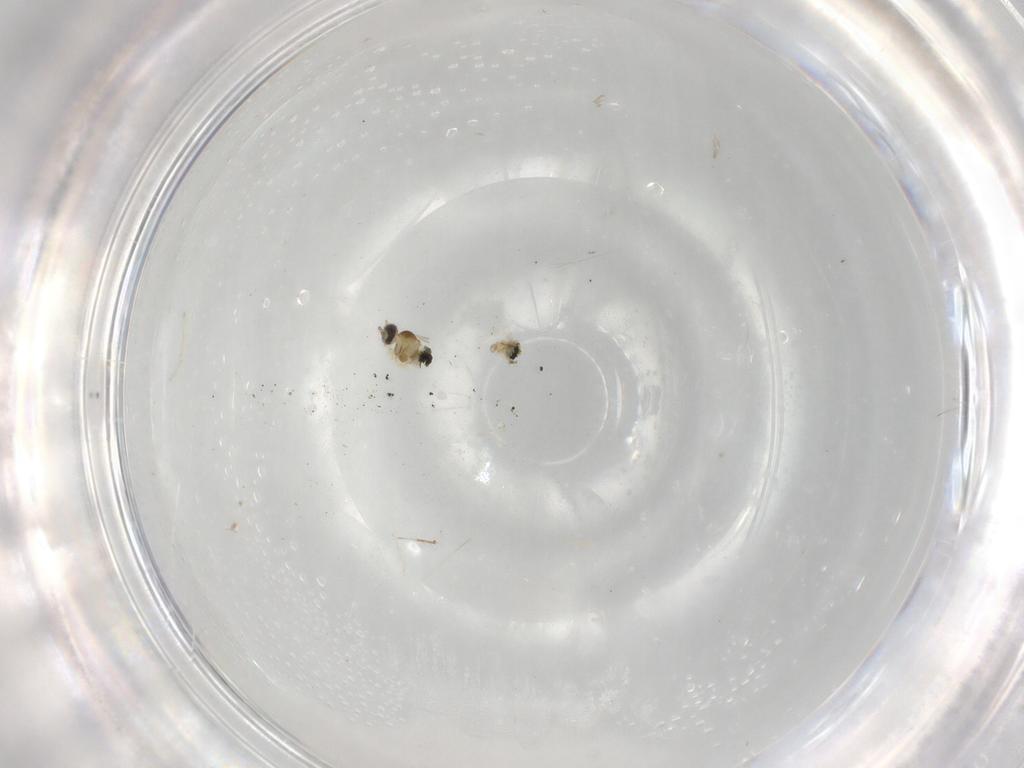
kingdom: Animalia
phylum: Arthropoda
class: Insecta
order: Diptera
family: Cecidomyiidae
